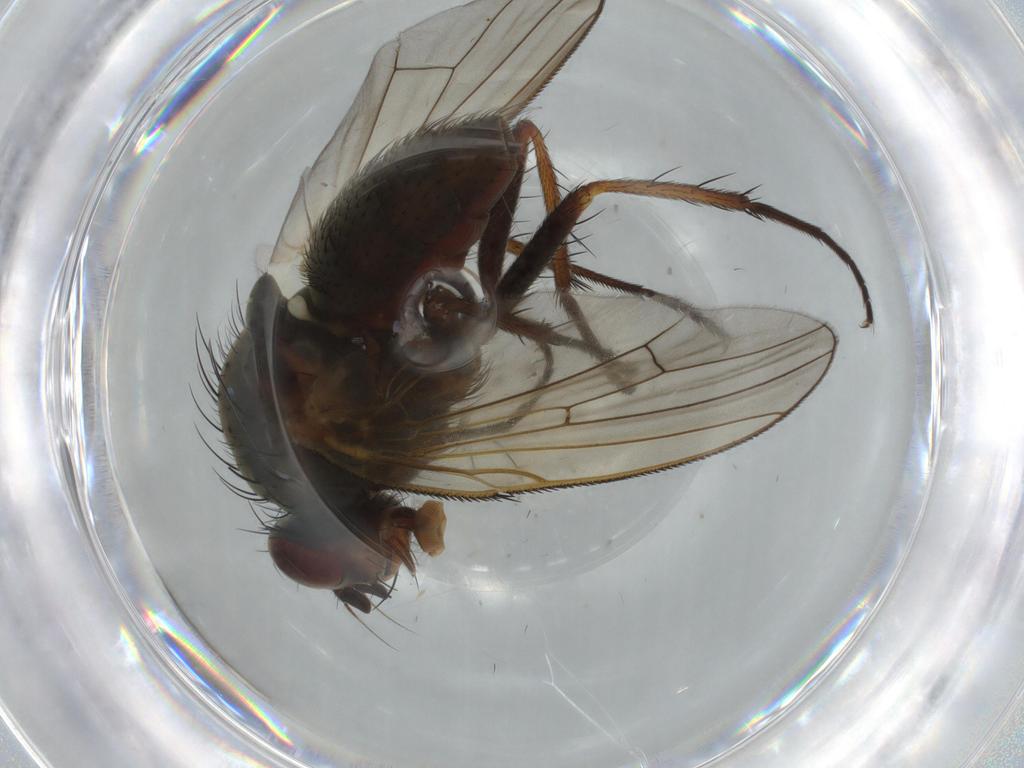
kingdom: Animalia
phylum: Arthropoda
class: Insecta
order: Diptera
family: Anthomyiidae
